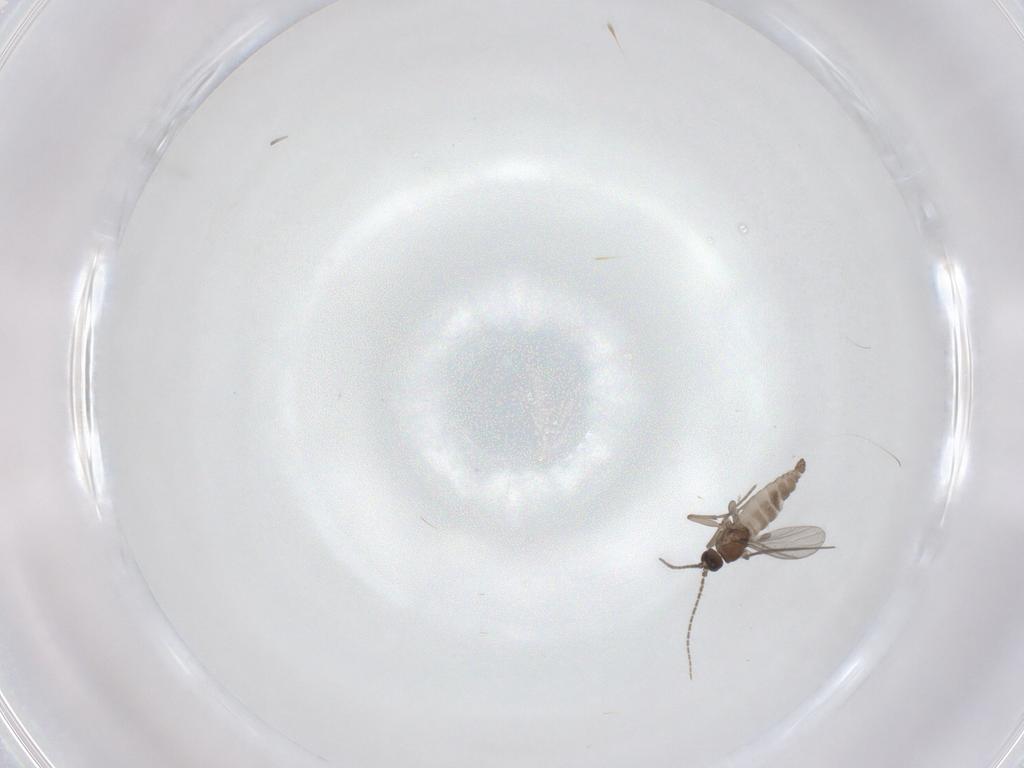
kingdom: Animalia
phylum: Arthropoda
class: Insecta
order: Diptera
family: Sciaridae
